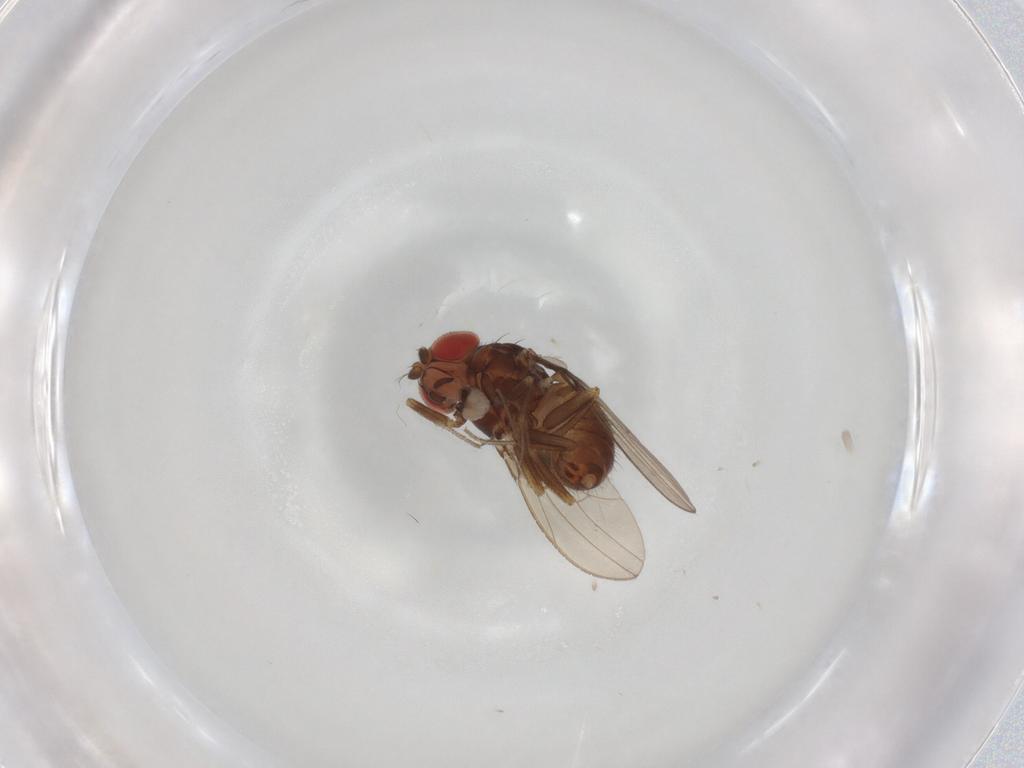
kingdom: Animalia
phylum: Arthropoda
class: Insecta
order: Diptera
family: Drosophilidae
